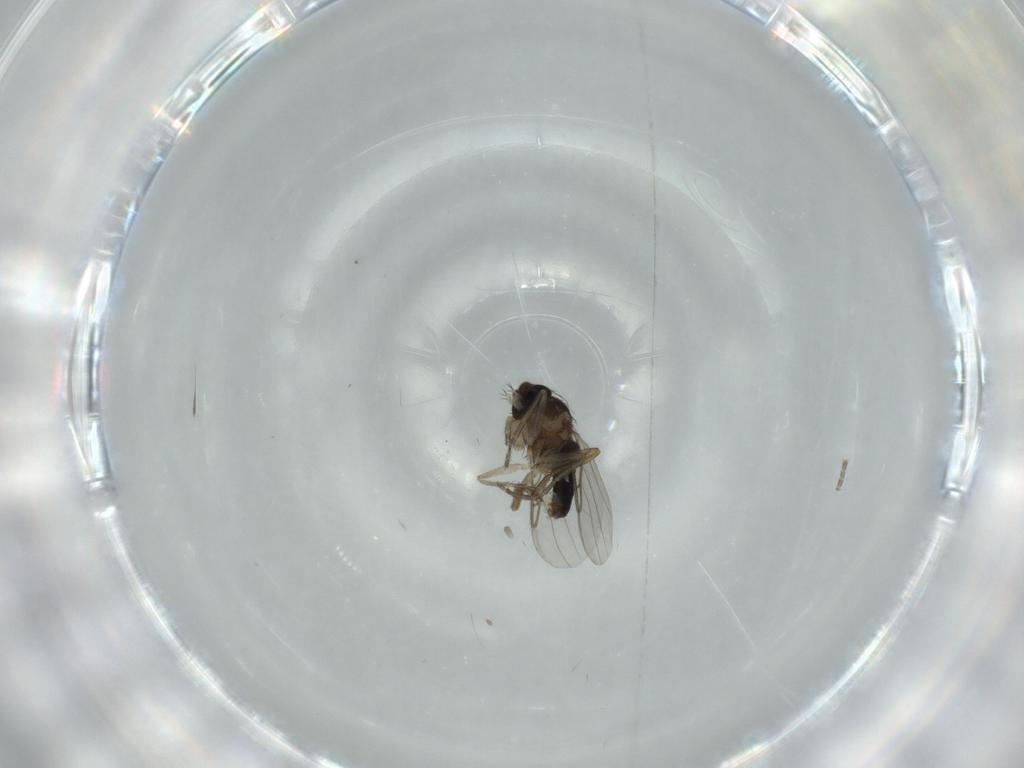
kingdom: Animalia
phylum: Arthropoda
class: Insecta
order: Diptera
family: Phoridae
